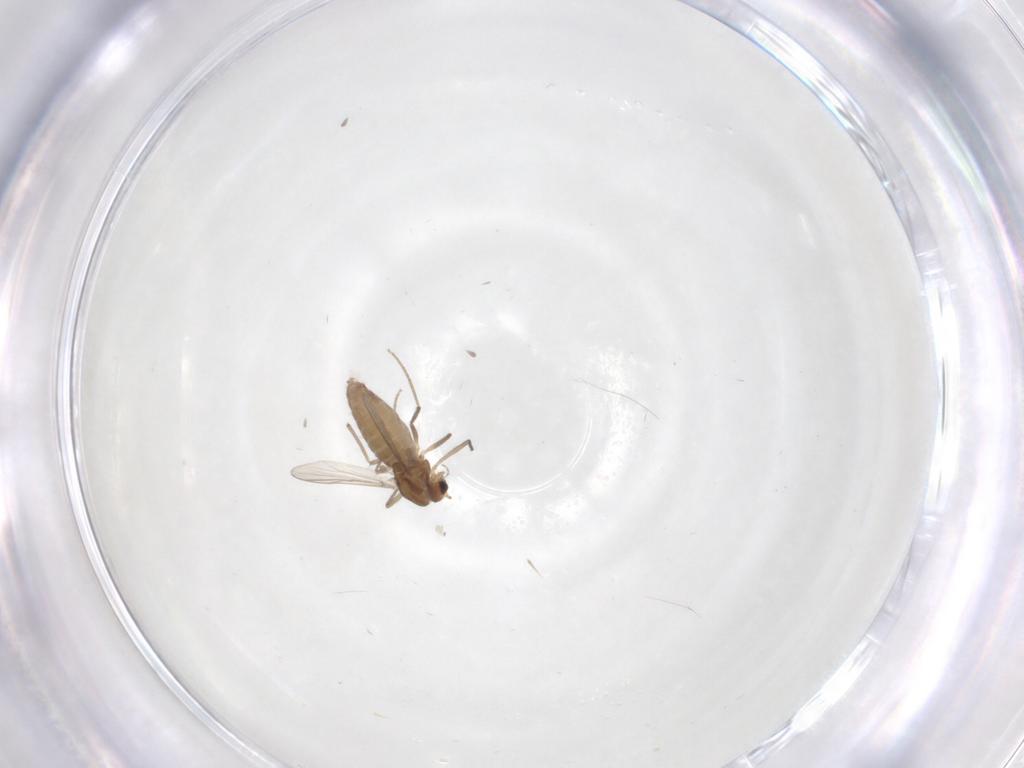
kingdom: Animalia
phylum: Arthropoda
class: Insecta
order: Diptera
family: Chironomidae
